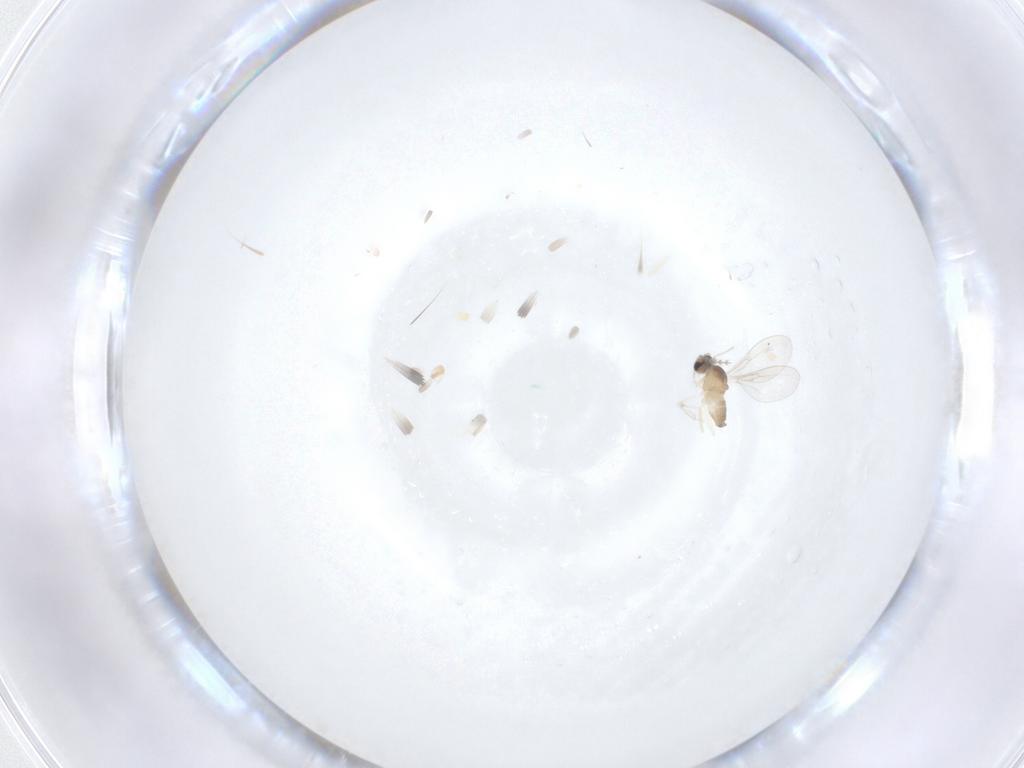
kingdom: Animalia
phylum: Arthropoda
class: Insecta
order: Diptera
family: Cecidomyiidae
